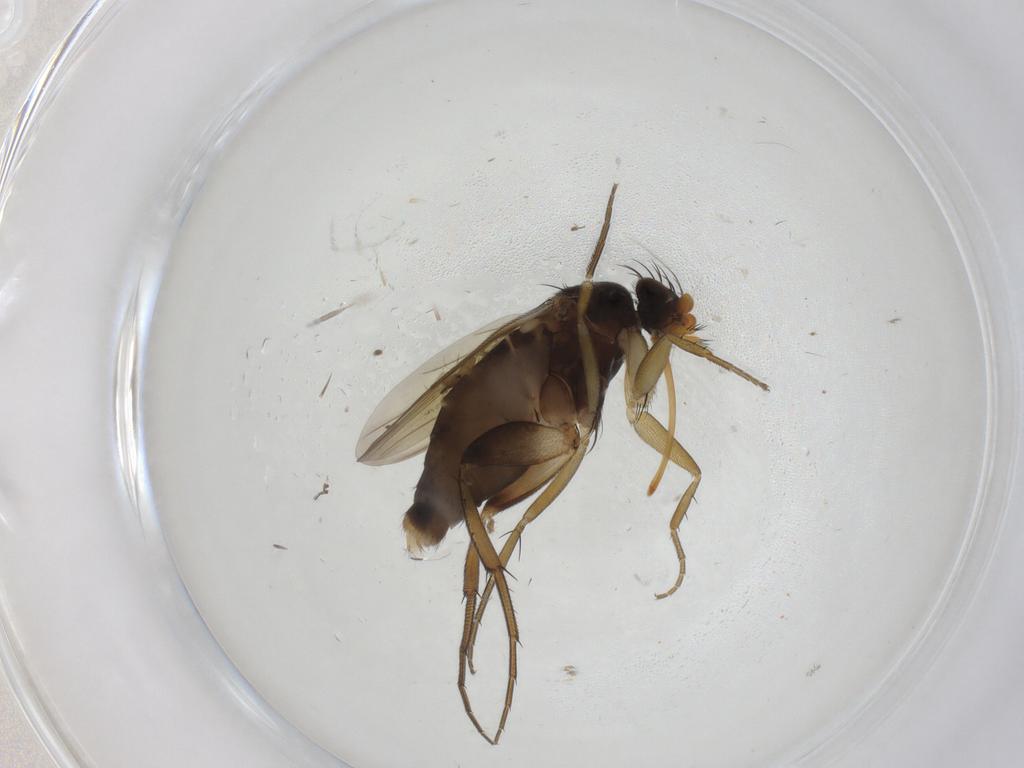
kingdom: Animalia
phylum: Arthropoda
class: Insecta
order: Diptera
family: Phoridae
